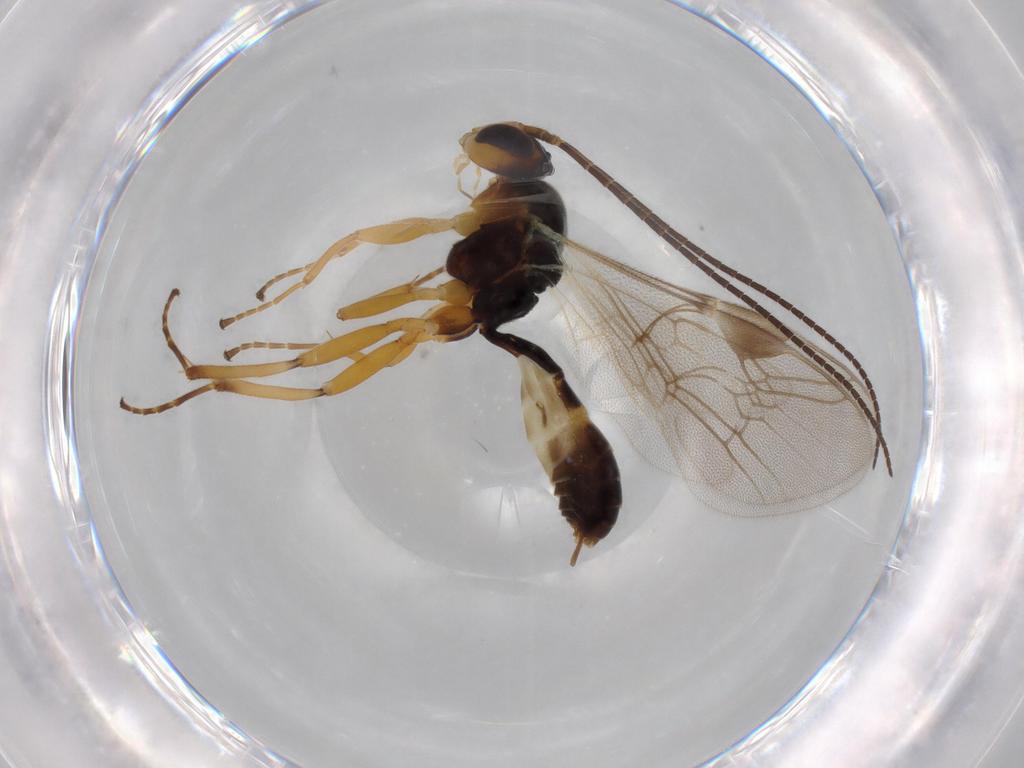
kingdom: Animalia
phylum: Arthropoda
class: Insecta
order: Hymenoptera
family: Eulophidae
